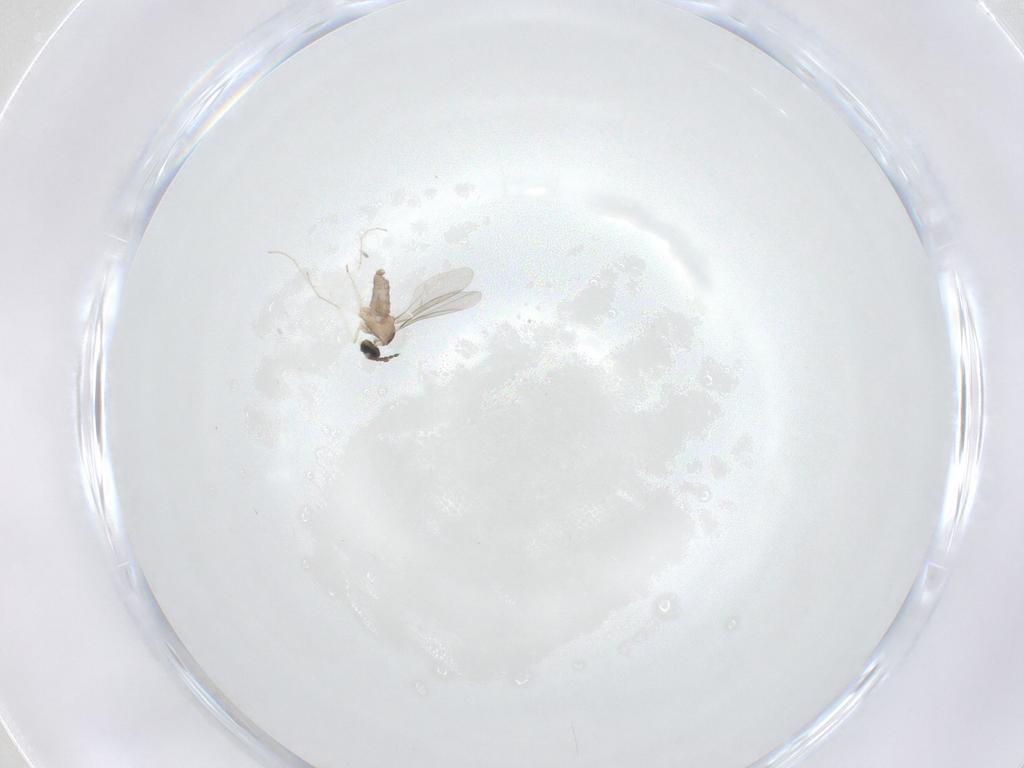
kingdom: Animalia
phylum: Arthropoda
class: Insecta
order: Diptera
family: Cecidomyiidae
